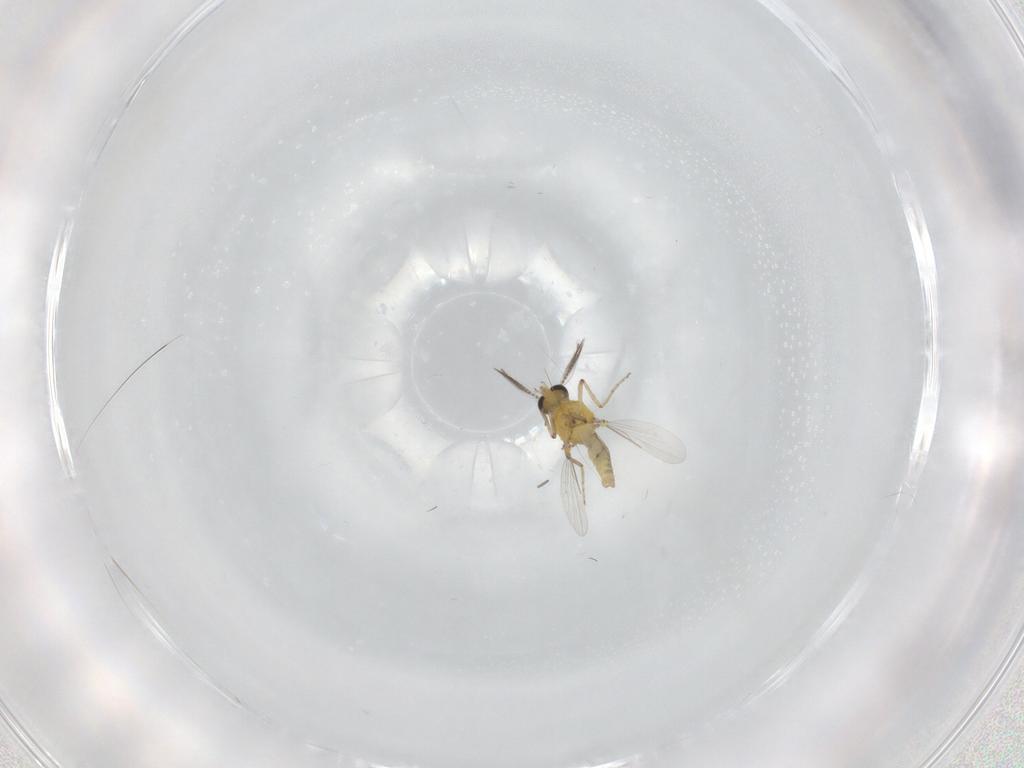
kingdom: Animalia
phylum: Arthropoda
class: Insecta
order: Diptera
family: Ceratopogonidae
